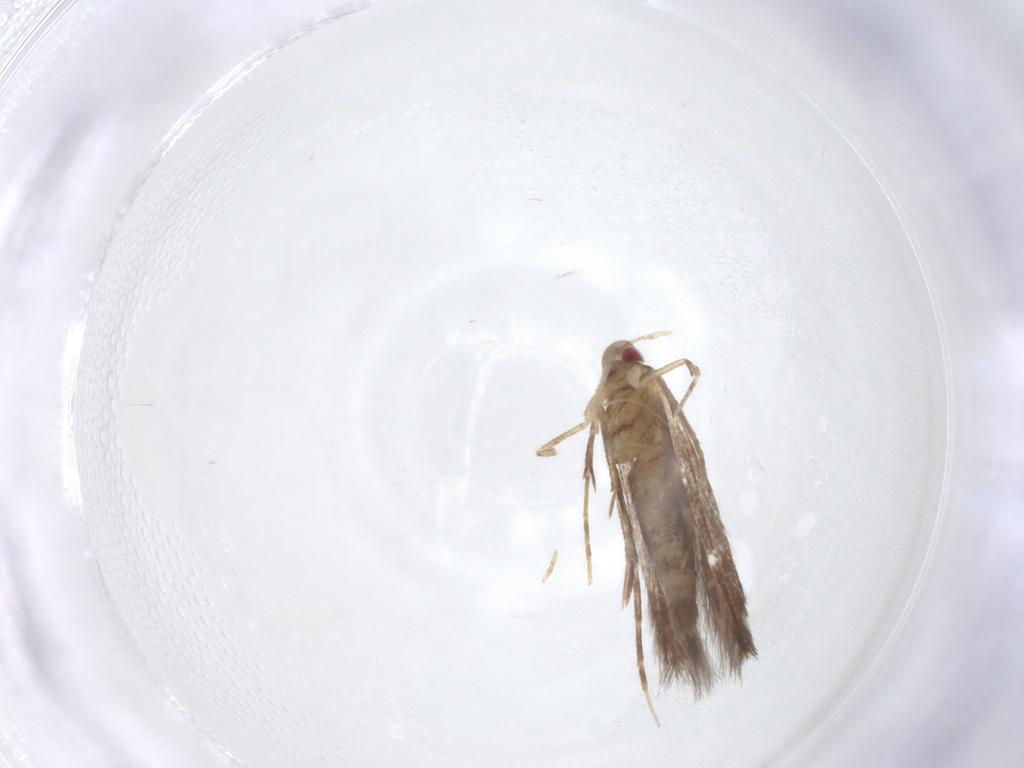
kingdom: Animalia
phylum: Arthropoda
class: Insecta
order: Lepidoptera
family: Cosmopterigidae
